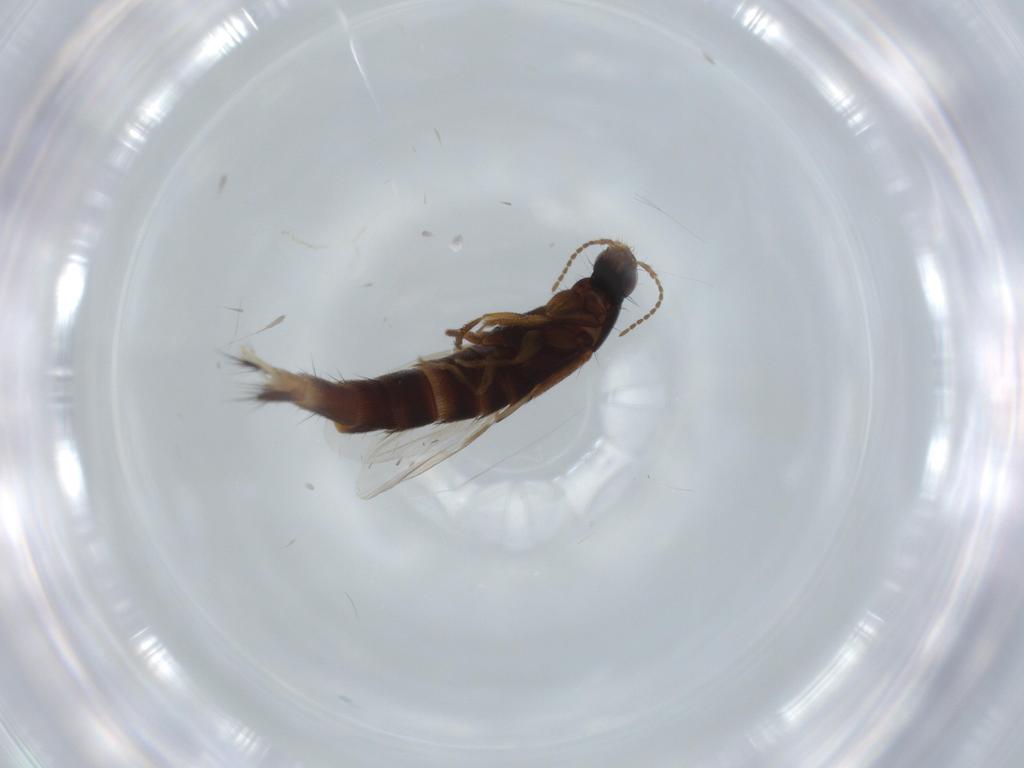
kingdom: Animalia
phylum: Arthropoda
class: Insecta
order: Coleoptera
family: Staphylinidae
